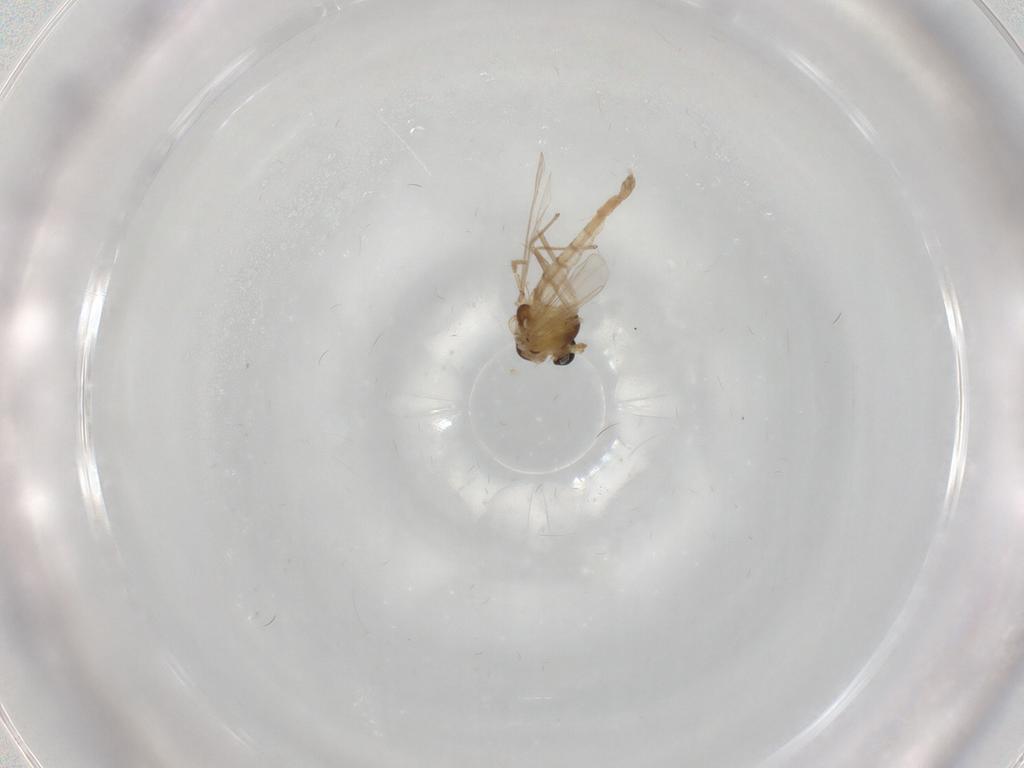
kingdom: Animalia
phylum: Arthropoda
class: Insecta
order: Diptera
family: Chironomidae
